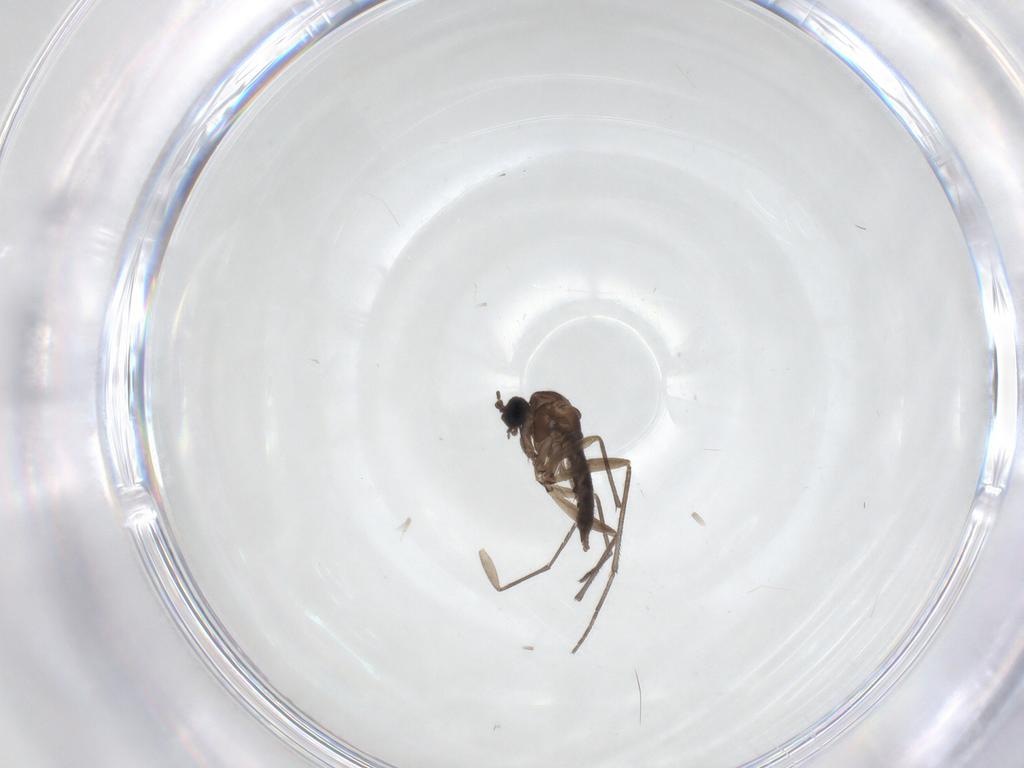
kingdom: Animalia
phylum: Arthropoda
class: Insecta
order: Diptera
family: Sciaridae
